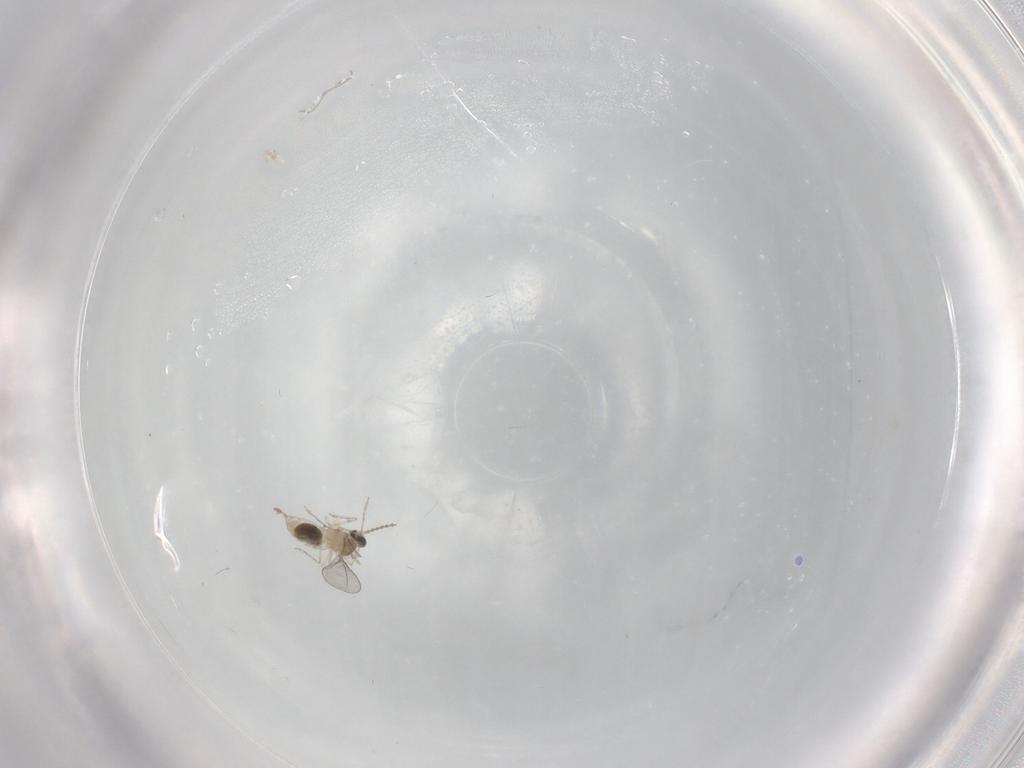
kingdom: Animalia
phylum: Arthropoda
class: Insecta
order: Diptera
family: Cecidomyiidae
